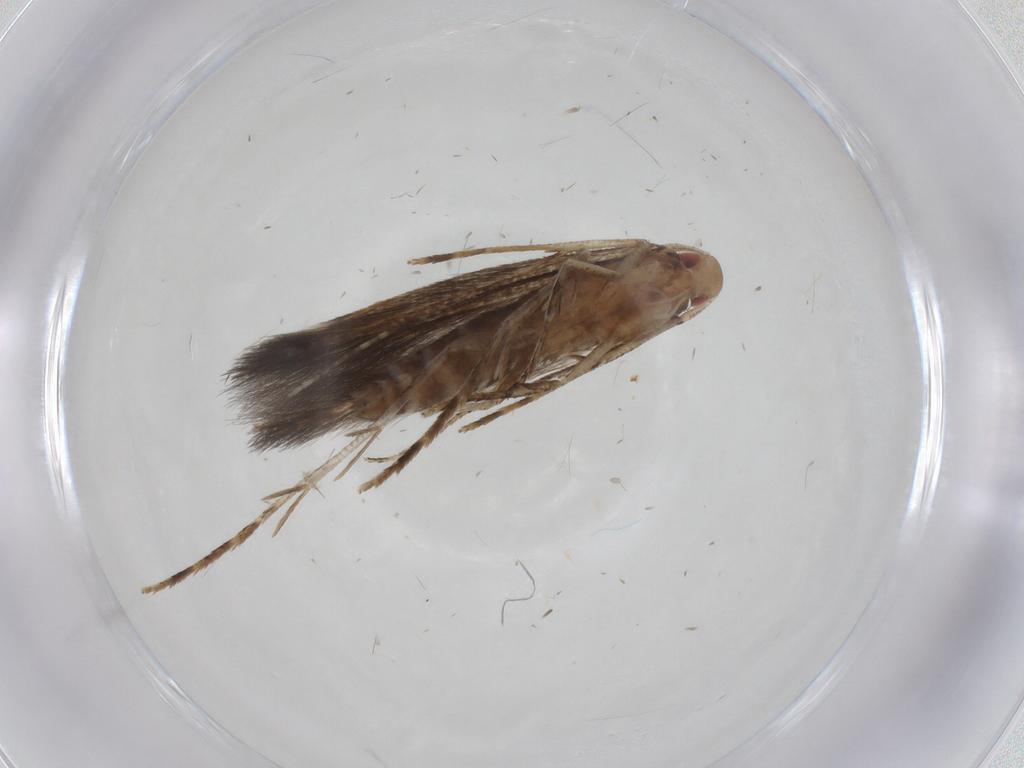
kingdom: Animalia
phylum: Arthropoda
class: Insecta
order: Lepidoptera
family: Cosmopterigidae
